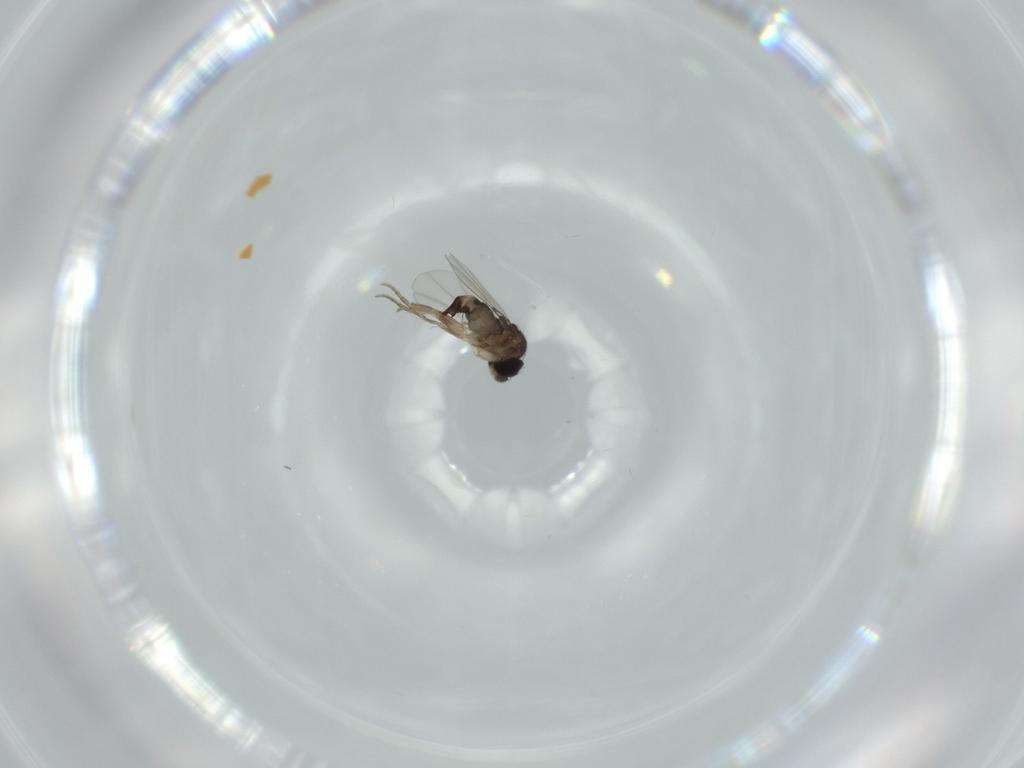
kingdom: Animalia
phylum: Arthropoda
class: Insecta
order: Diptera
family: Phoridae
